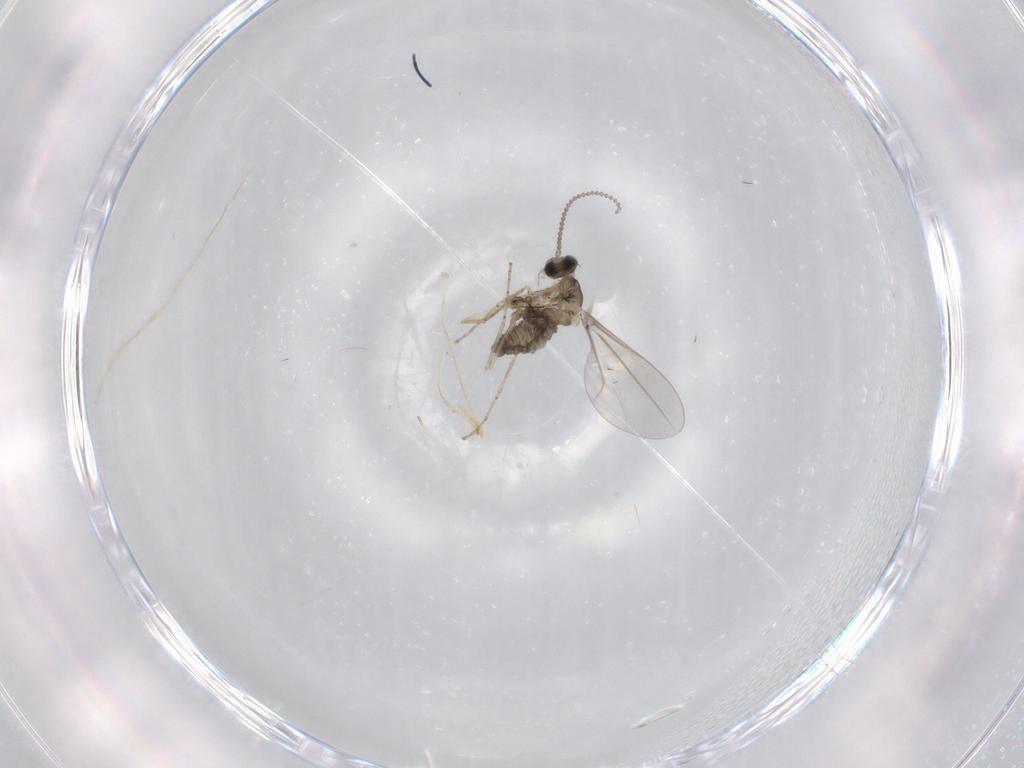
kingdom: Animalia
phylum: Arthropoda
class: Insecta
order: Diptera
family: Cecidomyiidae
